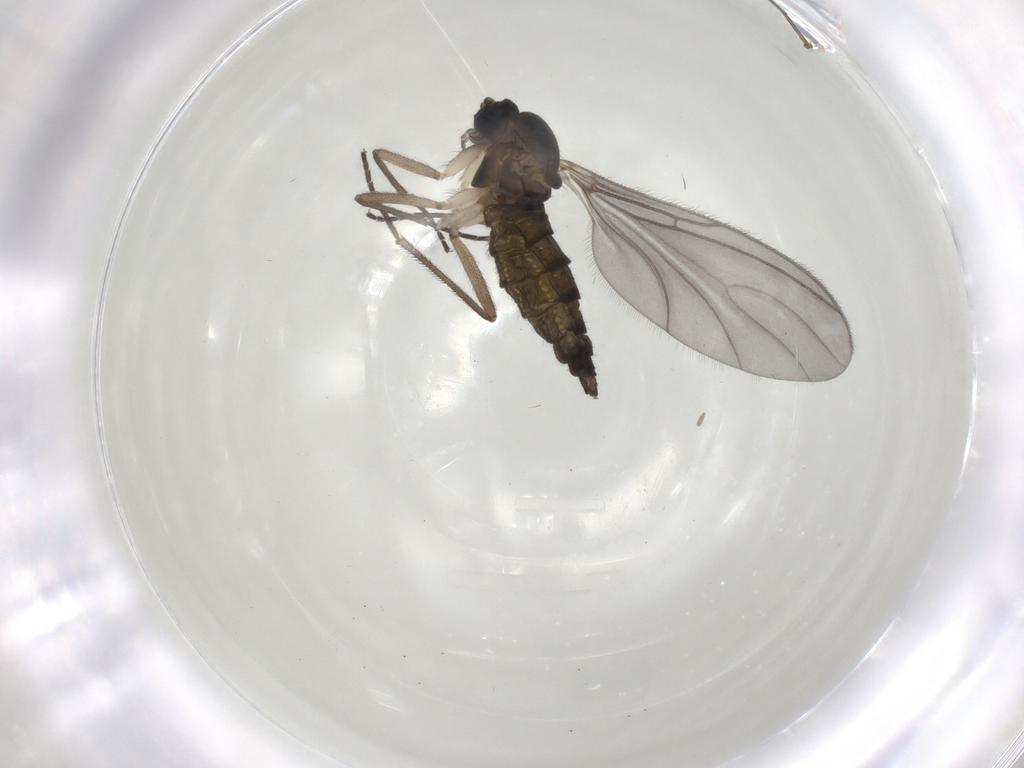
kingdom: Animalia
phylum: Arthropoda
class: Insecta
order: Diptera
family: Sciaridae
